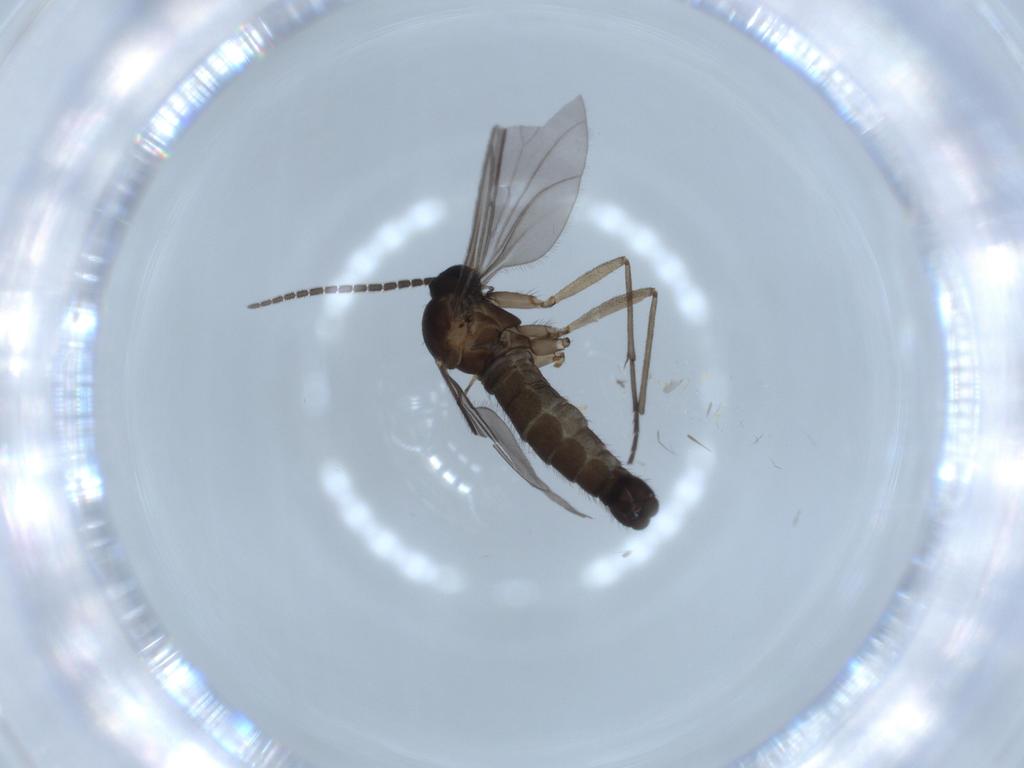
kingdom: Animalia
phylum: Arthropoda
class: Insecta
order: Diptera
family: Sciaridae
